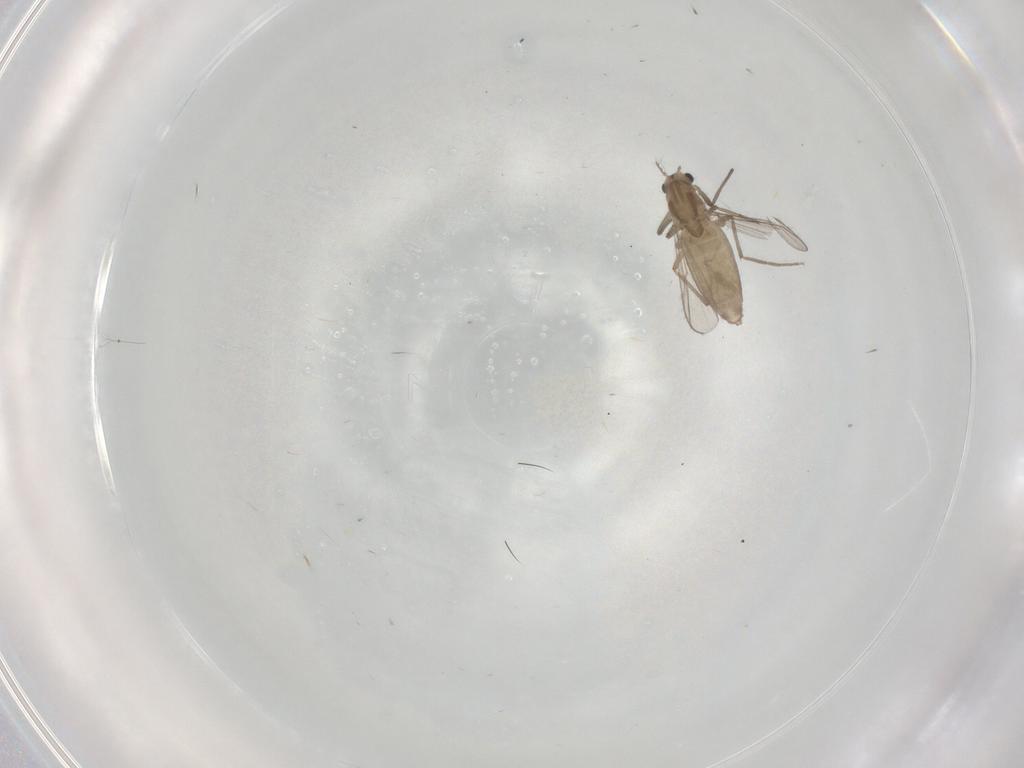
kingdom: Animalia
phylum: Arthropoda
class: Insecta
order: Diptera
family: Chironomidae
